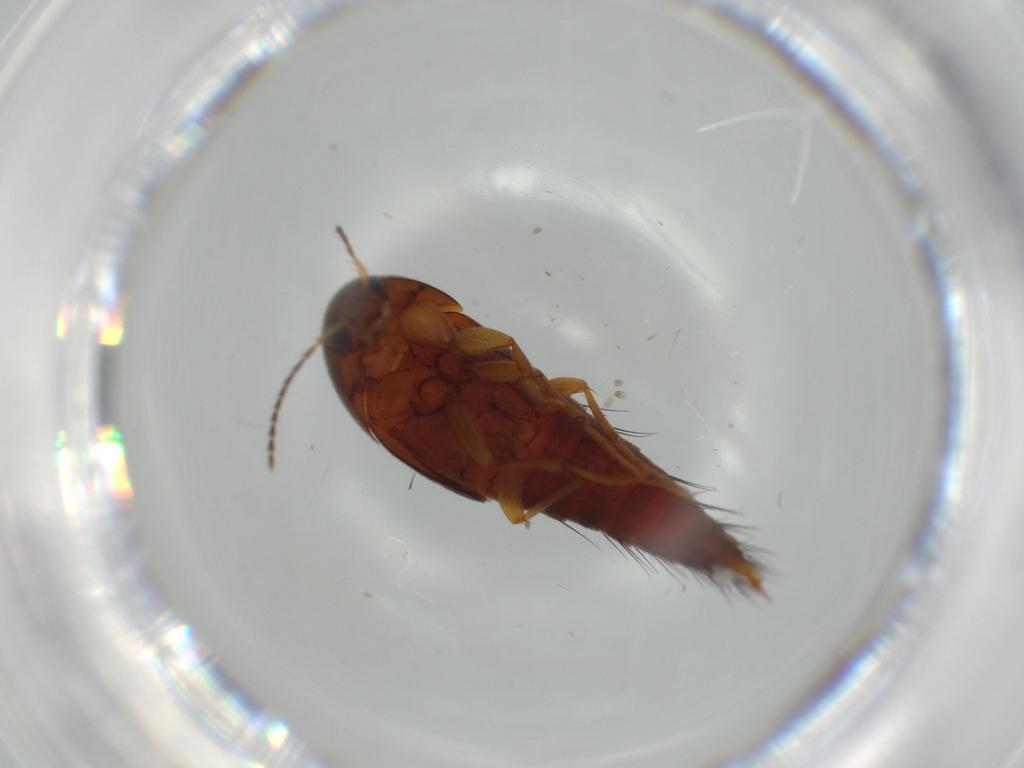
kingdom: Animalia
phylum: Arthropoda
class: Insecta
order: Coleoptera
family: Staphylinidae
